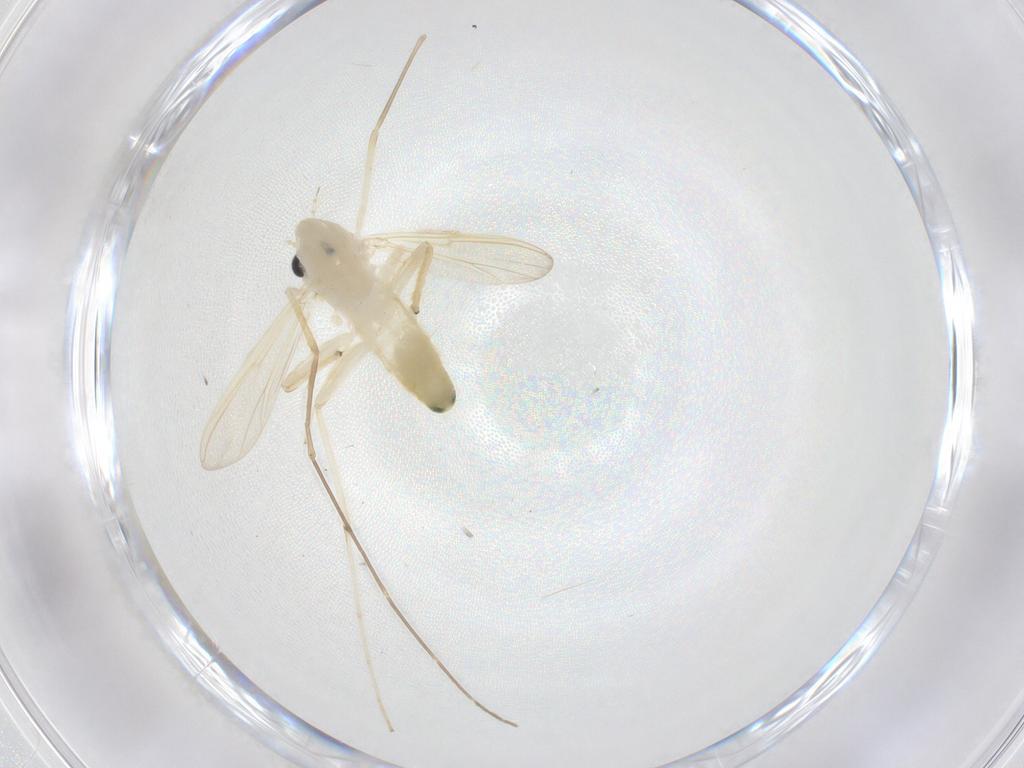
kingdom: Animalia
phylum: Arthropoda
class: Insecta
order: Diptera
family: Chironomidae
